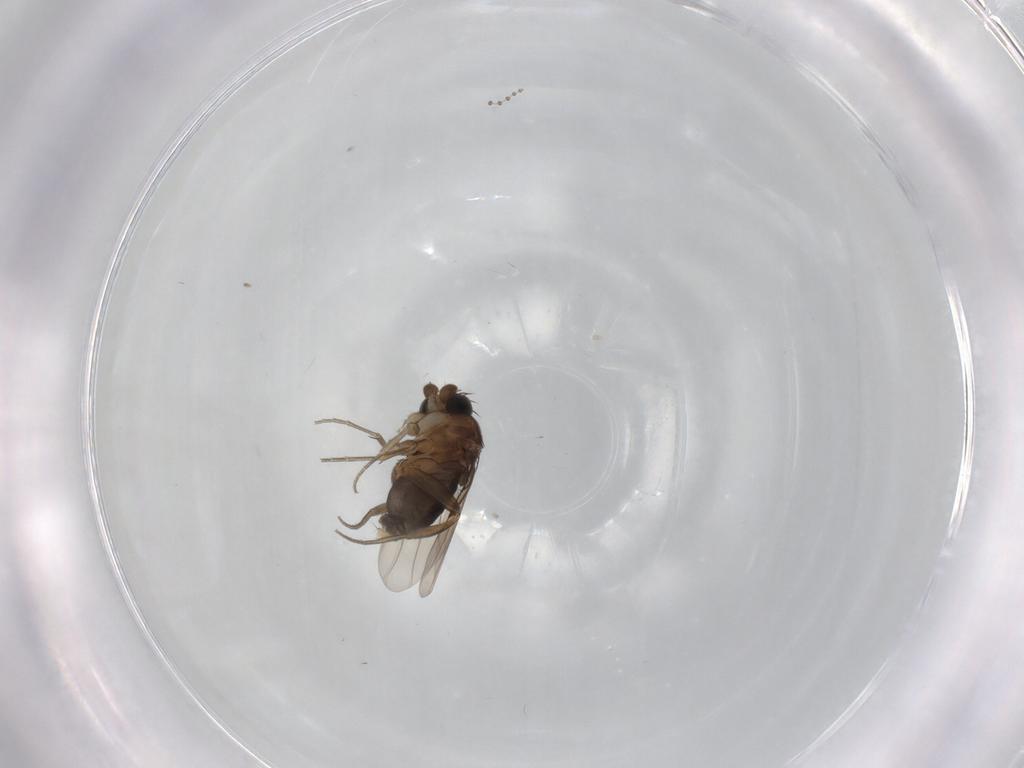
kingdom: Animalia
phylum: Arthropoda
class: Insecta
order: Diptera
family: Phoridae
